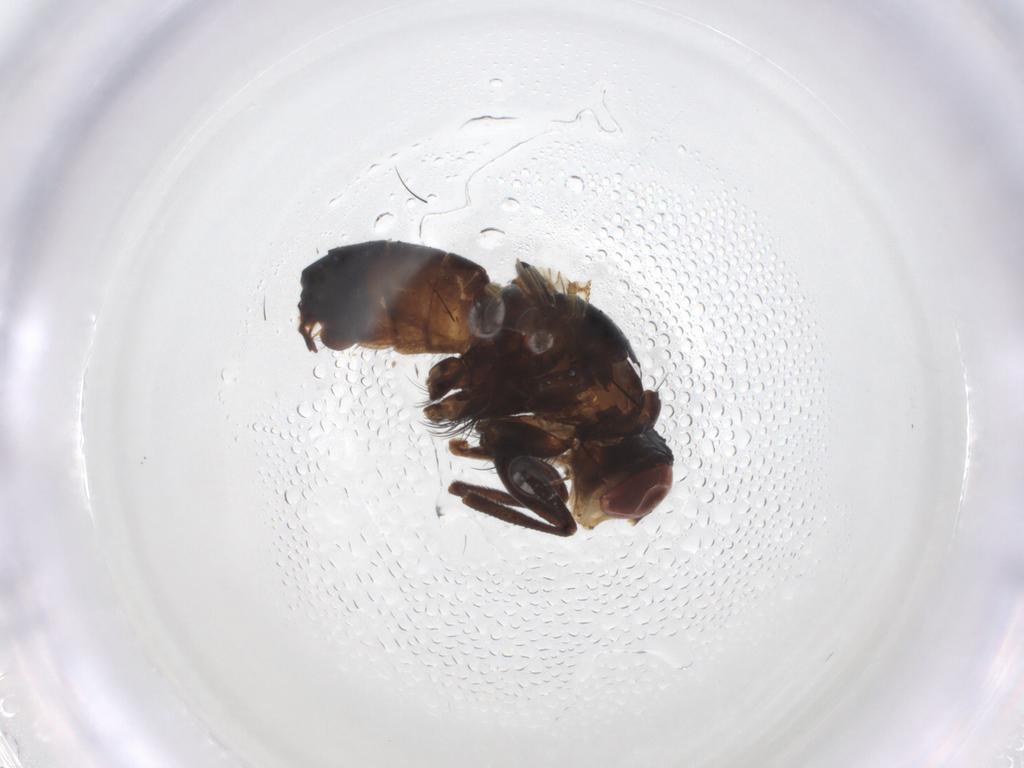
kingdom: Animalia
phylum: Arthropoda
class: Insecta
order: Diptera
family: Calliphoridae
